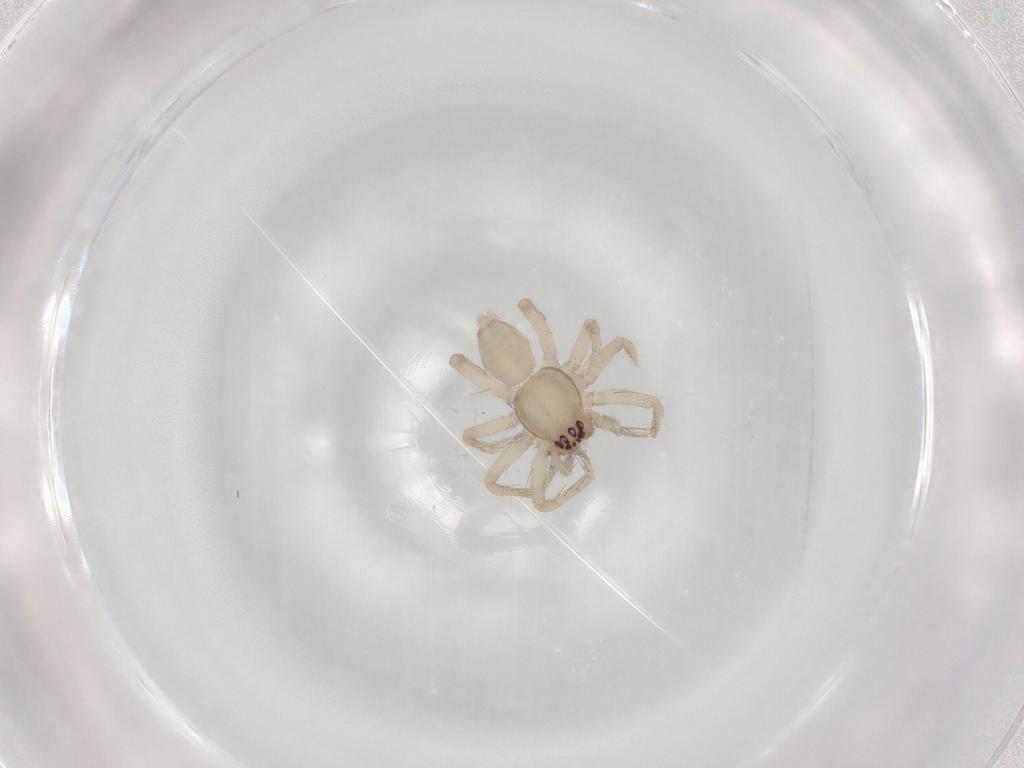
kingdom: Animalia
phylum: Arthropoda
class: Arachnida
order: Araneae
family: Anyphaenidae
